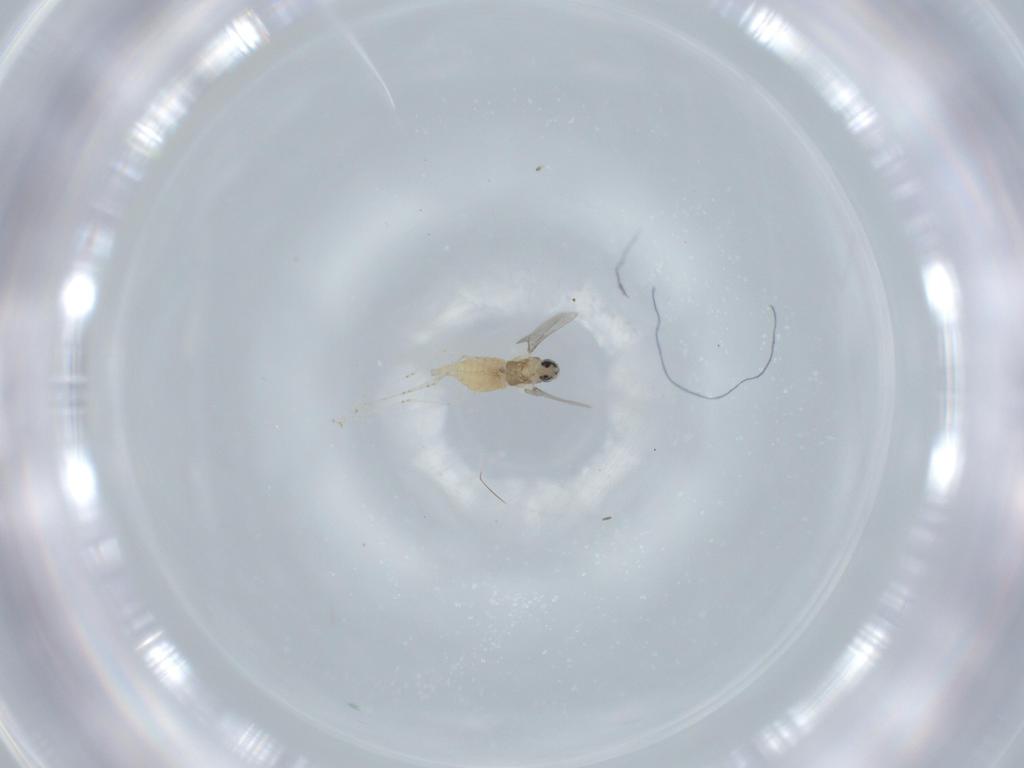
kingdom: Animalia
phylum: Arthropoda
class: Insecta
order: Diptera
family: Cecidomyiidae
